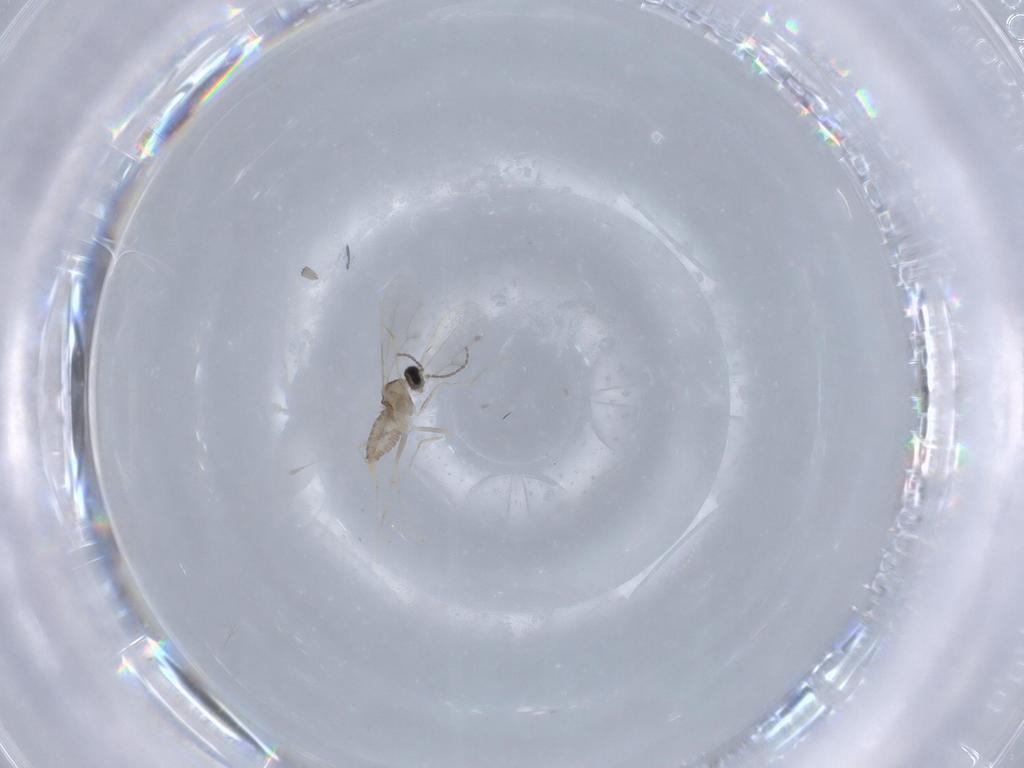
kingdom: Animalia
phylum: Arthropoda
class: Insecta
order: Diptera
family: Cecidomyiidae
